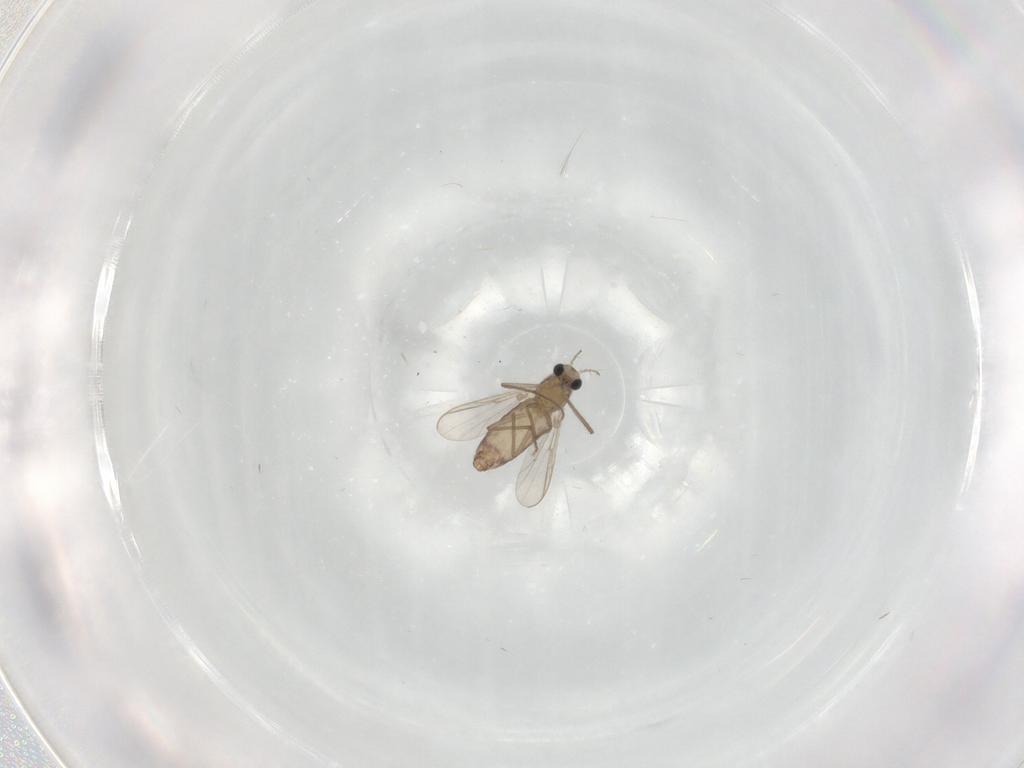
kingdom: Animalia
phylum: Arthropoda
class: Insecta
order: Diptera
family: Chironomidae
